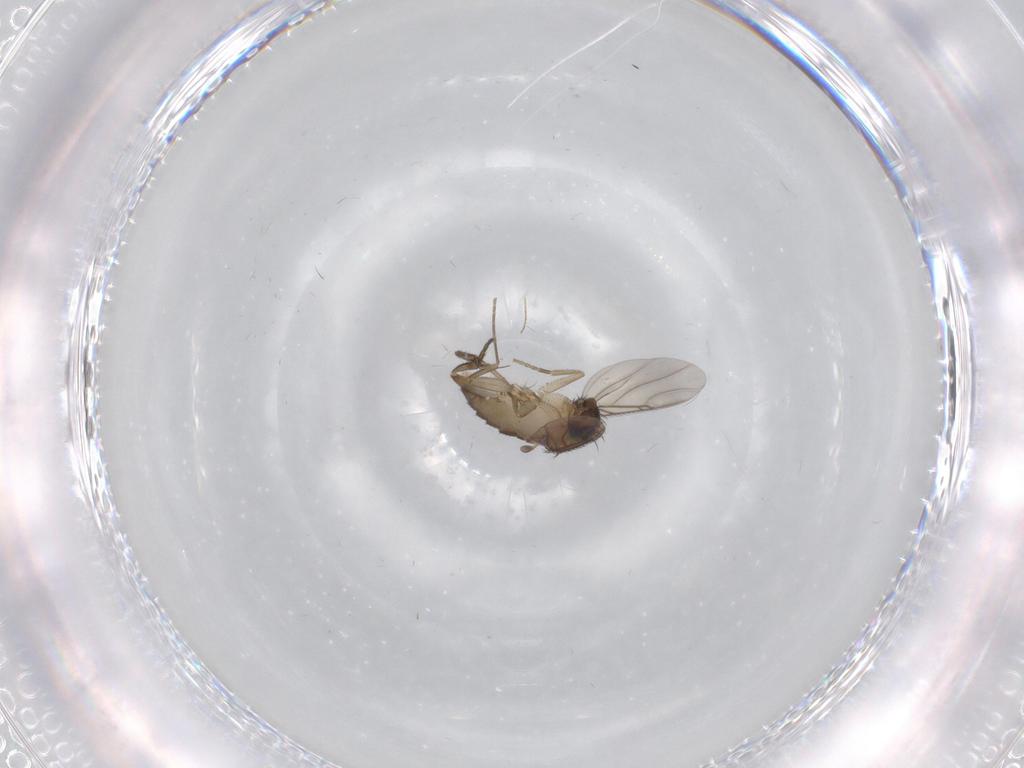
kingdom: Animalia
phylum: Arthropoda
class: Insecta
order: Diptera
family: Phoridae
